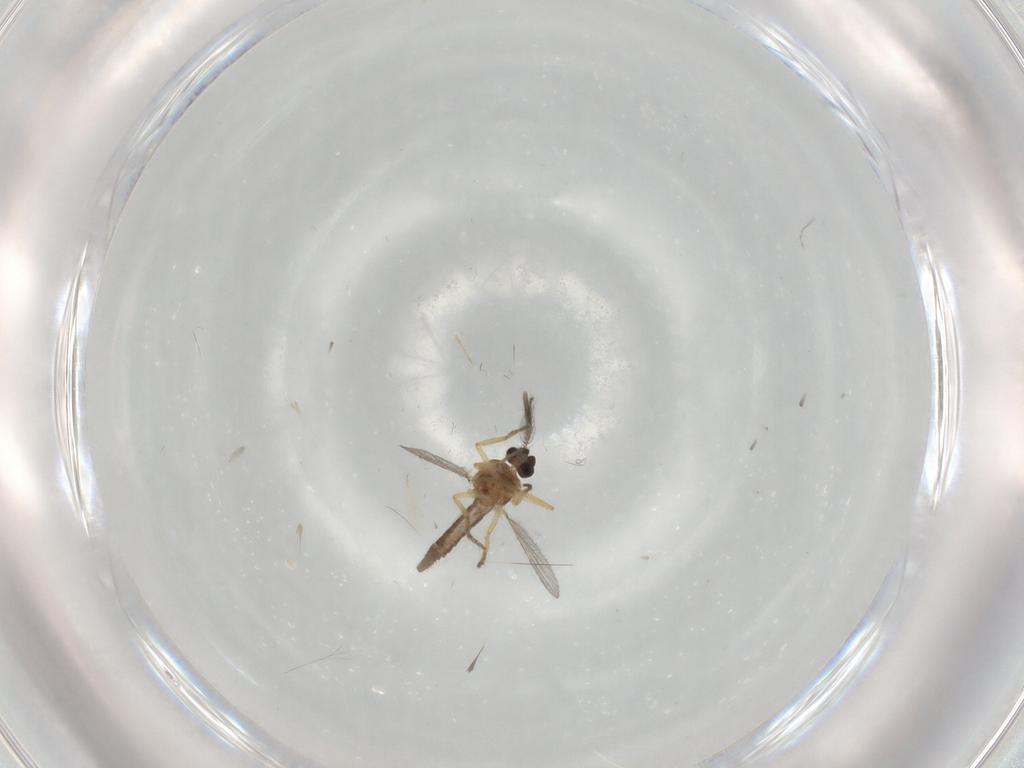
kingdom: Animalia
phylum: Arthropoda
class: Insecta
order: Diptera
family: Ceratopogonidae
